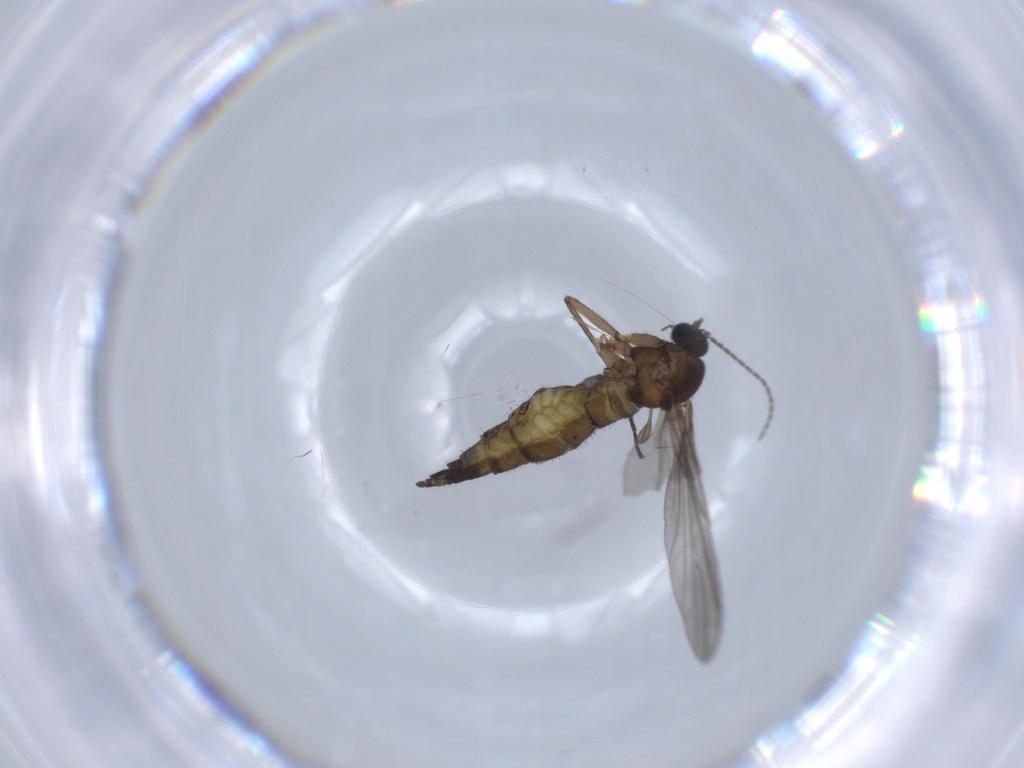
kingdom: Animalia
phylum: Arthropoda
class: Insecta
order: Diptera
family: Sciaridae
